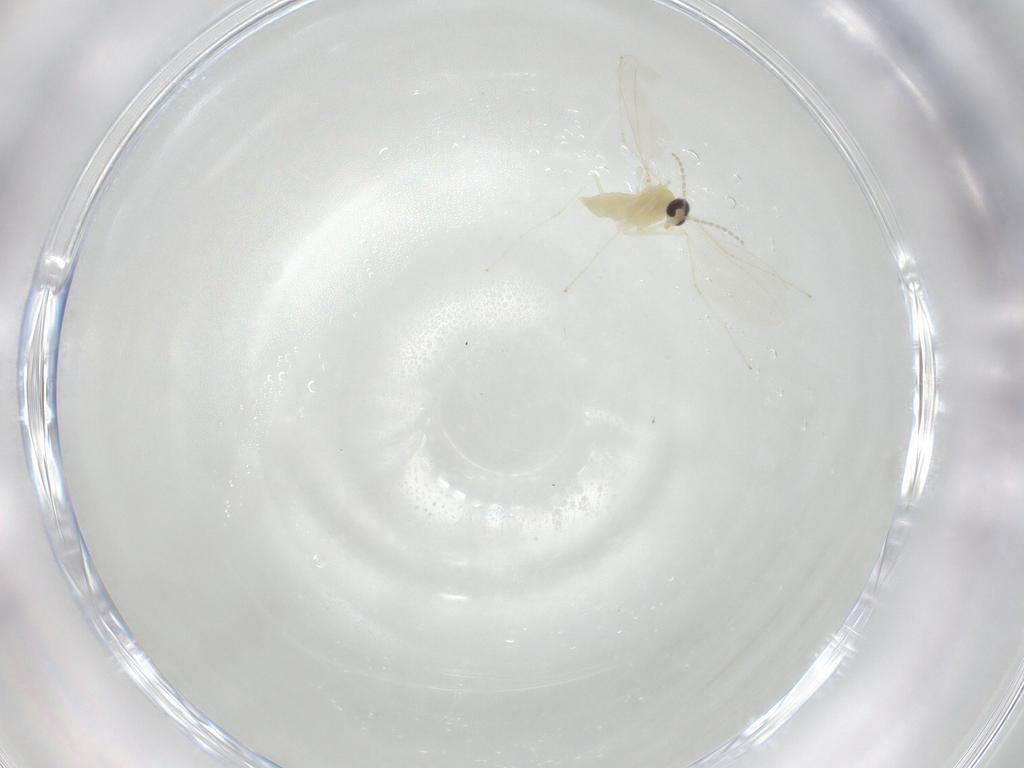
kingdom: Animalia
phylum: Arthropoda
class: Insecta
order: Diptera
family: Cecidomyiidae
